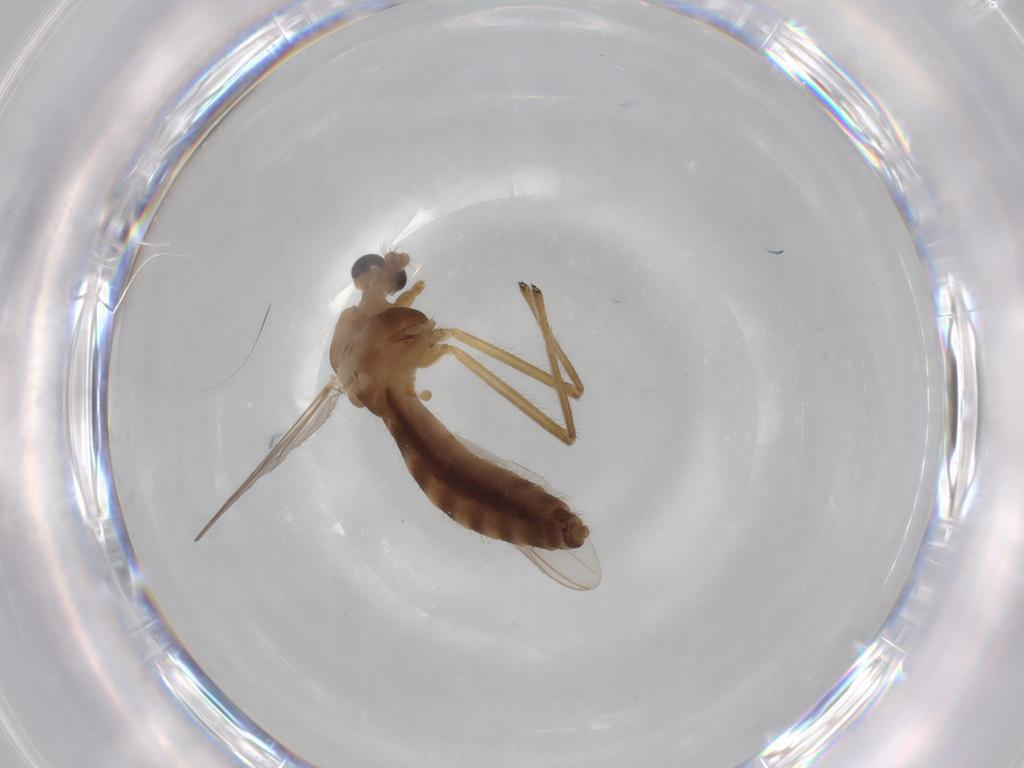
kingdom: Animalia
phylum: Arthropoda
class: Insecta
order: Diptera
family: Chironomidae
